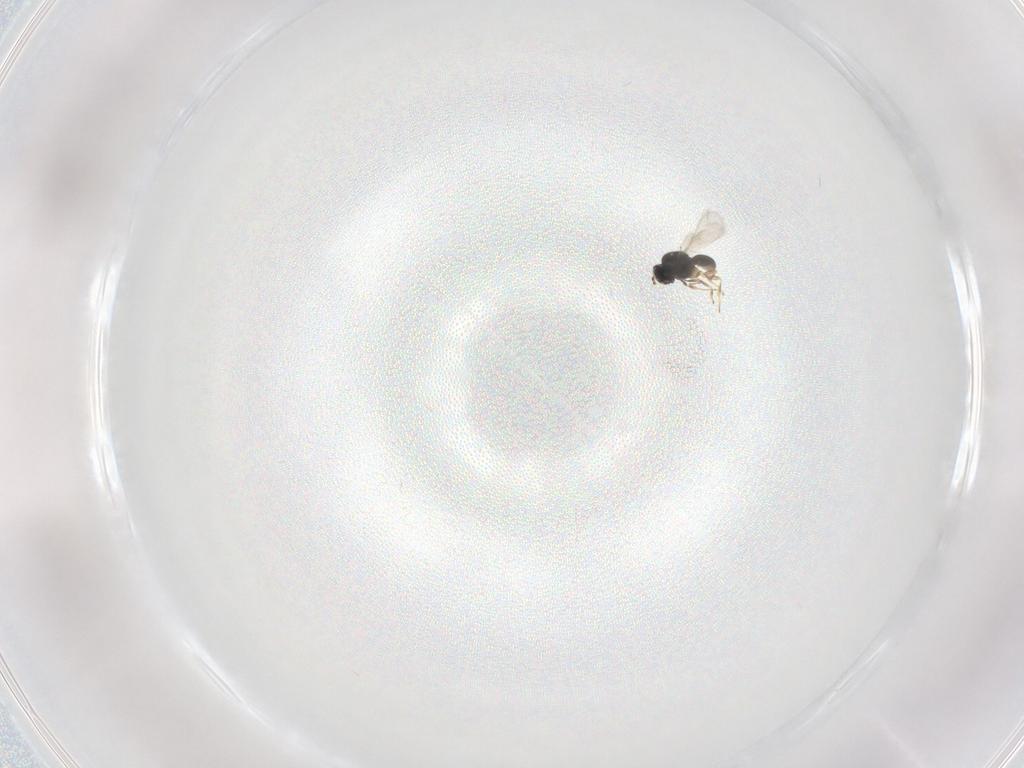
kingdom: Animalia
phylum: Arthropoda
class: Insecta
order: Hymenoptera
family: Scelionidae
